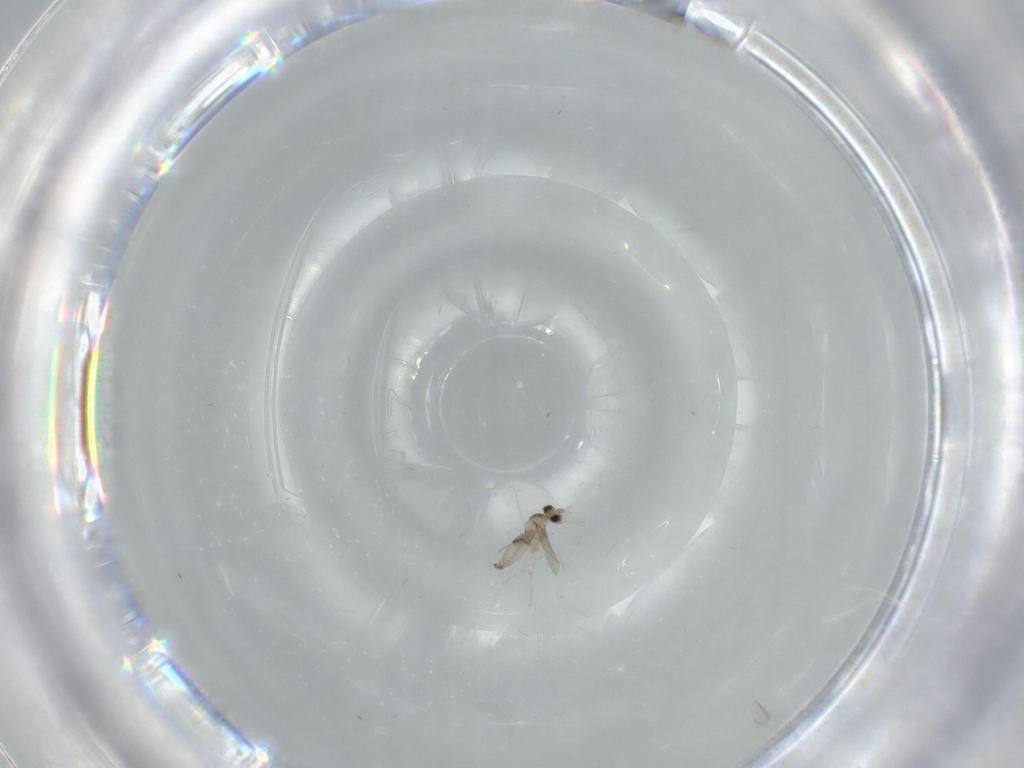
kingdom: Animalia
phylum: Arthropoda
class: Insecta
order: Diptera
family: Cecidomyiidae
